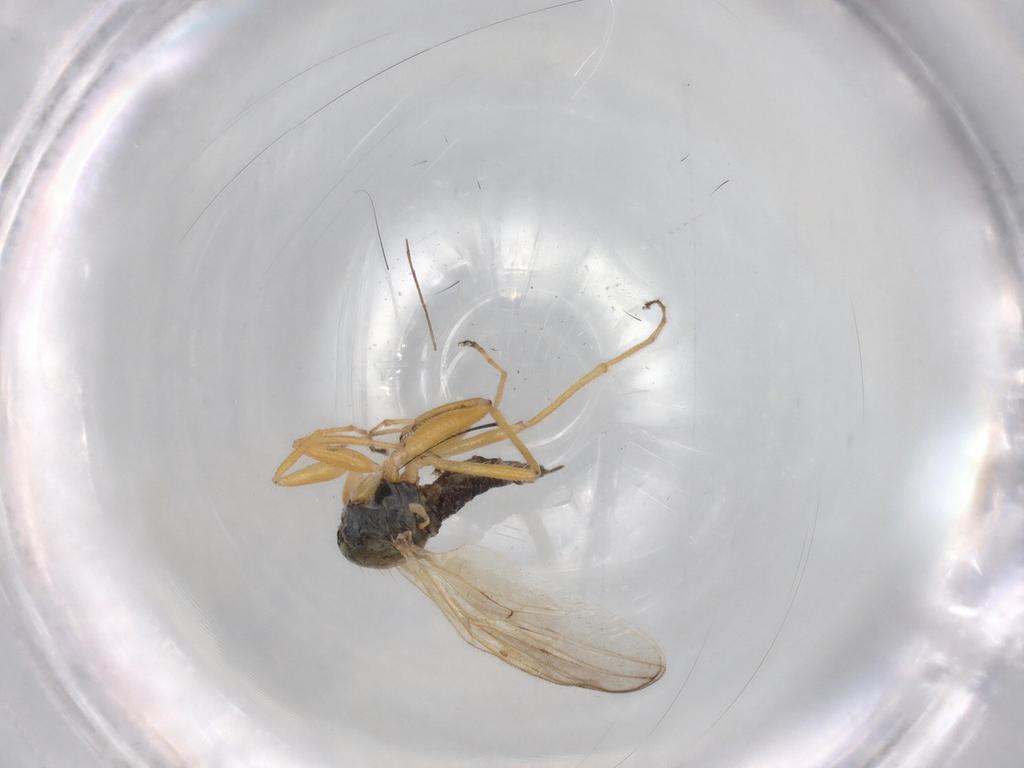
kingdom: Animalia
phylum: Arthropoda
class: Insecta
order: Diptera
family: Hybotidae
